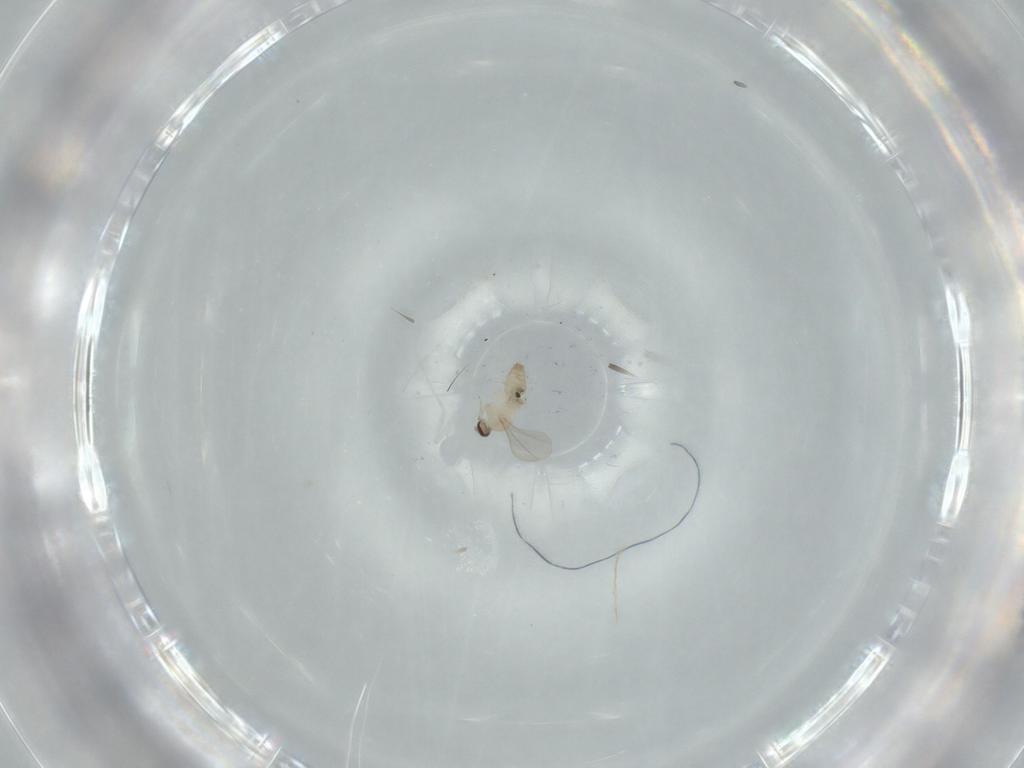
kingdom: Animalia
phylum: Arthropoda
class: Insecta
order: Diptera
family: Cecidomyiidae
